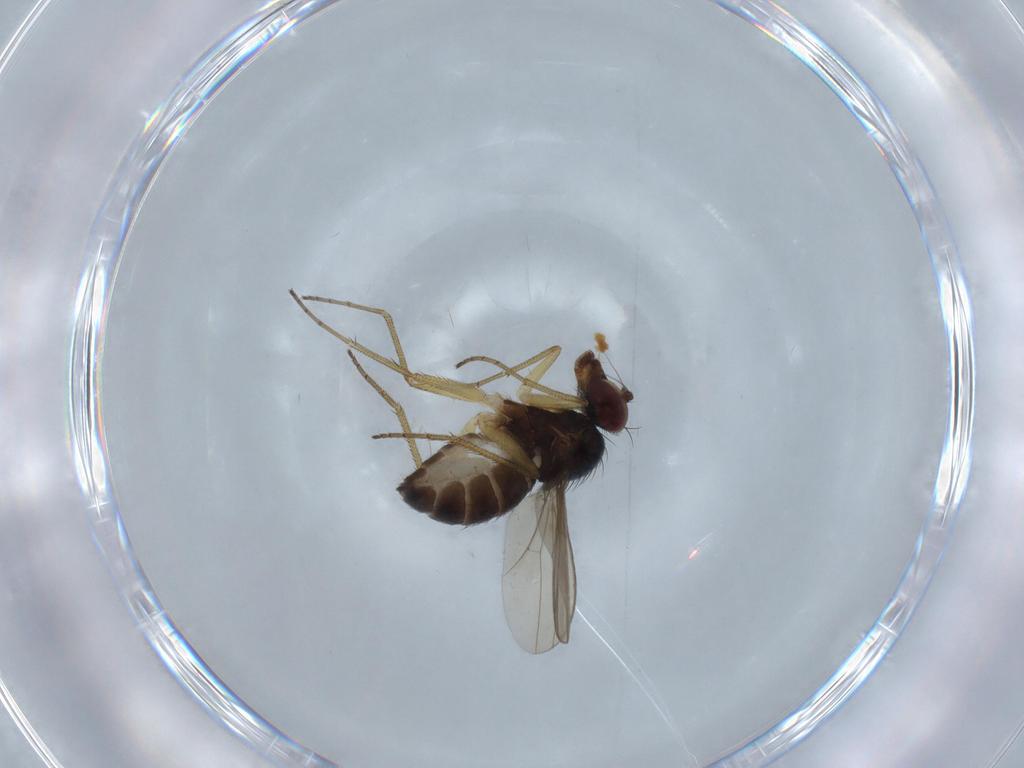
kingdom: Animalia
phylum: Arthropoda
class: Insecta
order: Diptera
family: Dolichopodidae
